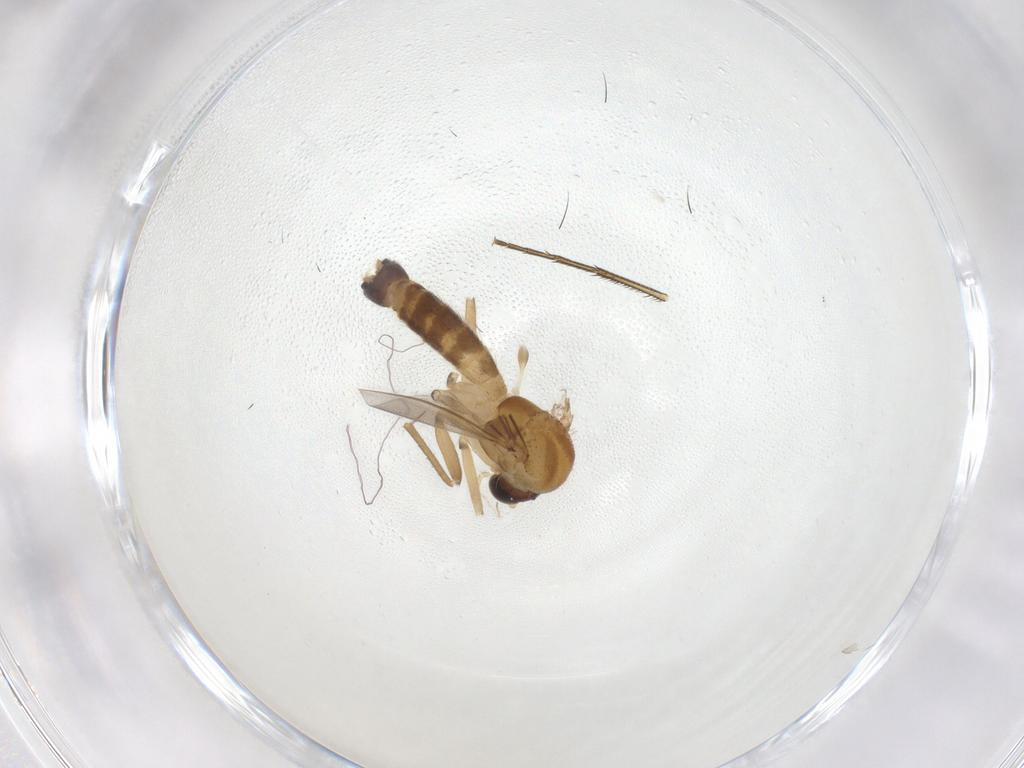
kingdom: Animalia
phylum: Arthropoda
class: Insecta
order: Diptera
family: Mycetophilidae
